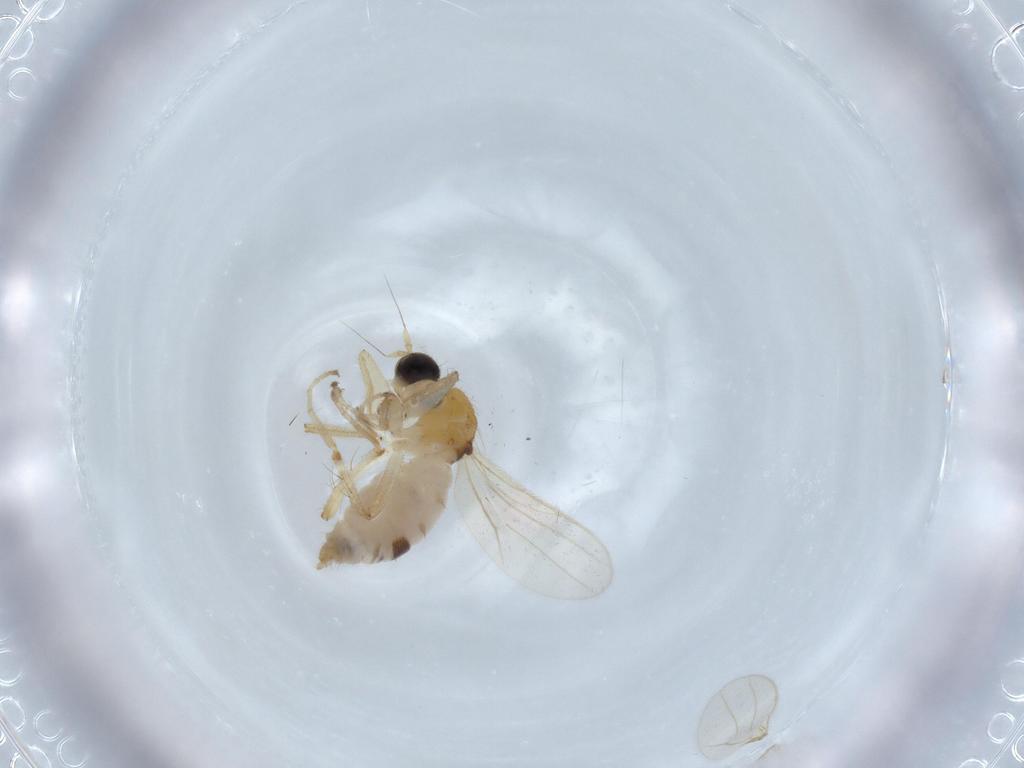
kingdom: Animalia
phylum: Arthropoda
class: Insecta
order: Diptera
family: Hybotidae
